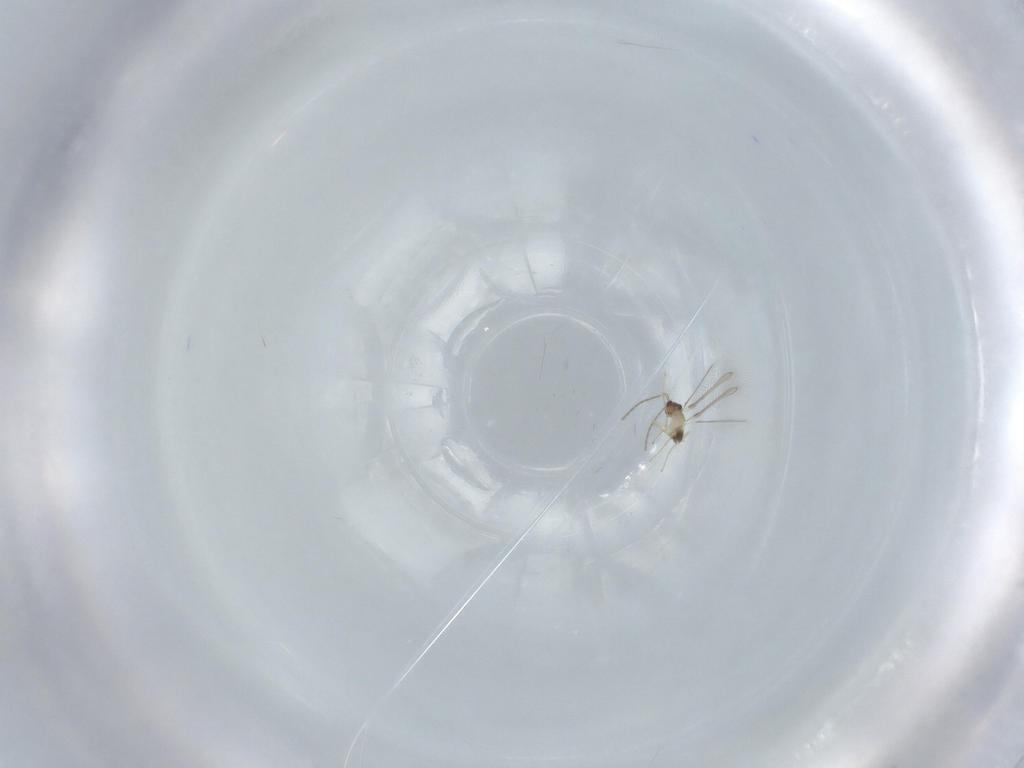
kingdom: Animalia
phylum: Arthropoda
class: Insecta
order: Hymenoptera
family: Mymaridae
